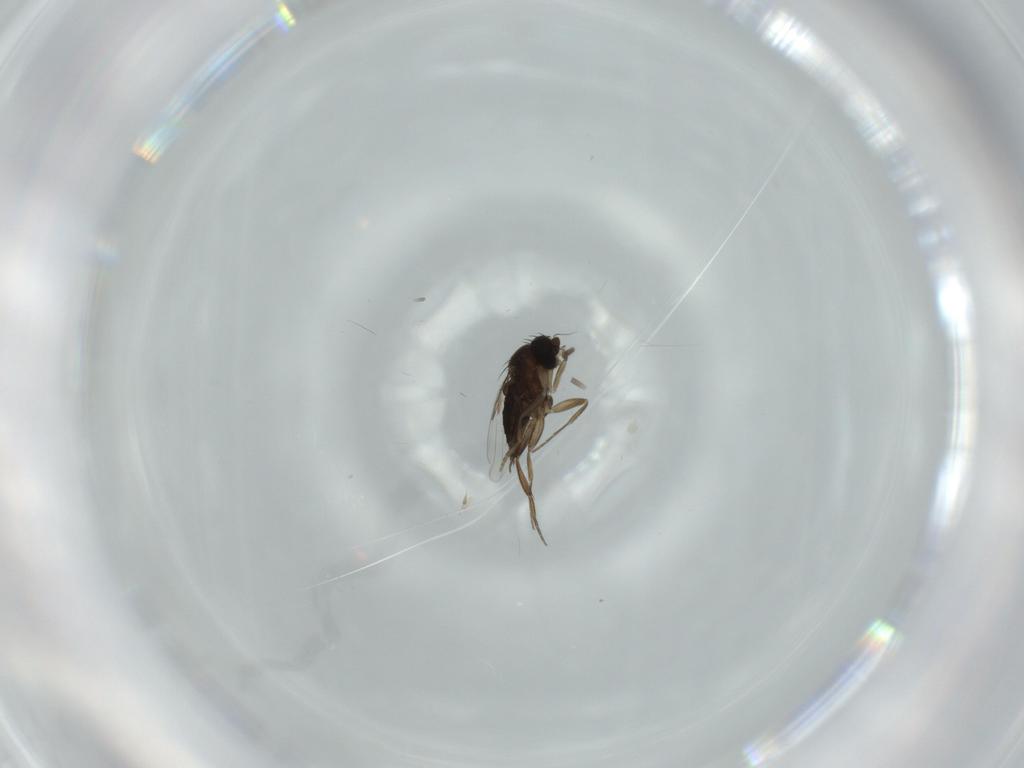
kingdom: Animalia
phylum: Arthropoda
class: Insecta
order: Diptera
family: Phoridae
